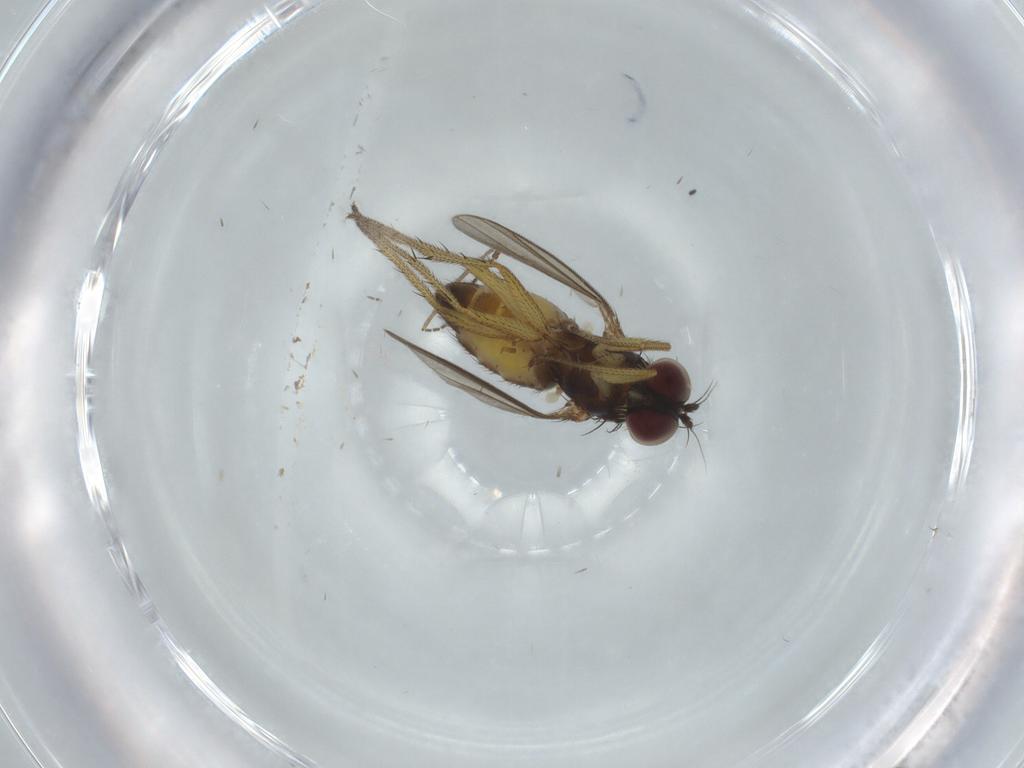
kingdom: Animalia
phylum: Arthropoda
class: Insecta
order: Diptera
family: Dolichopodidae
